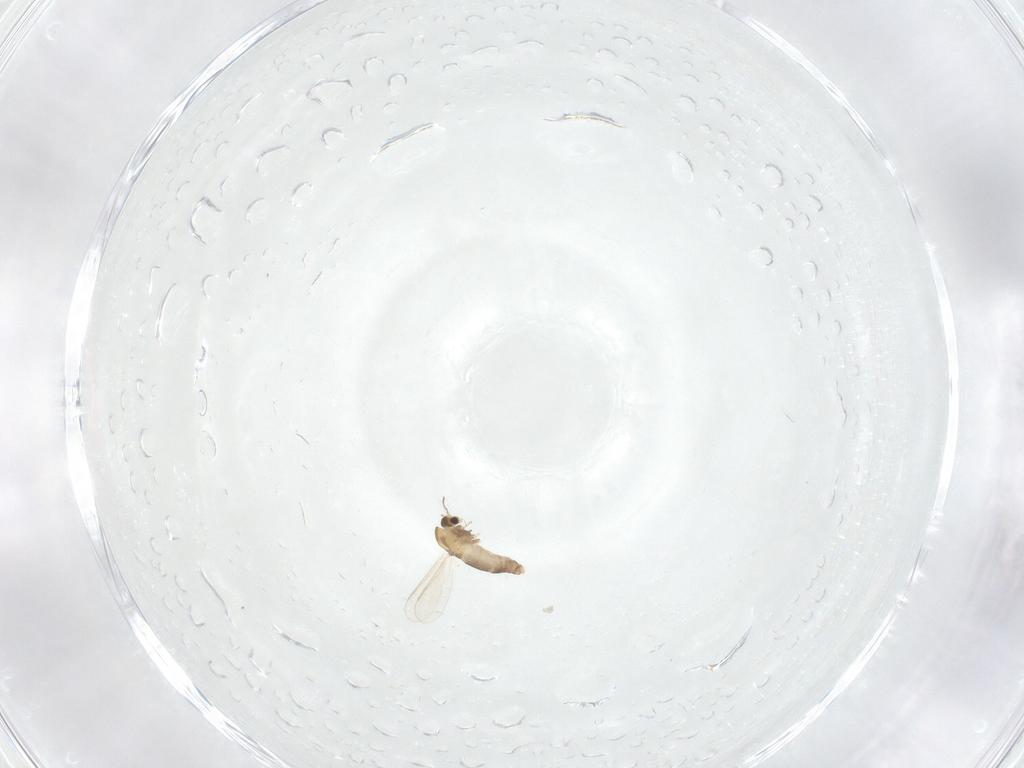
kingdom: Animalia
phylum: Arthropoda
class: Insecta
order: Diptera
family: Chironomidae
